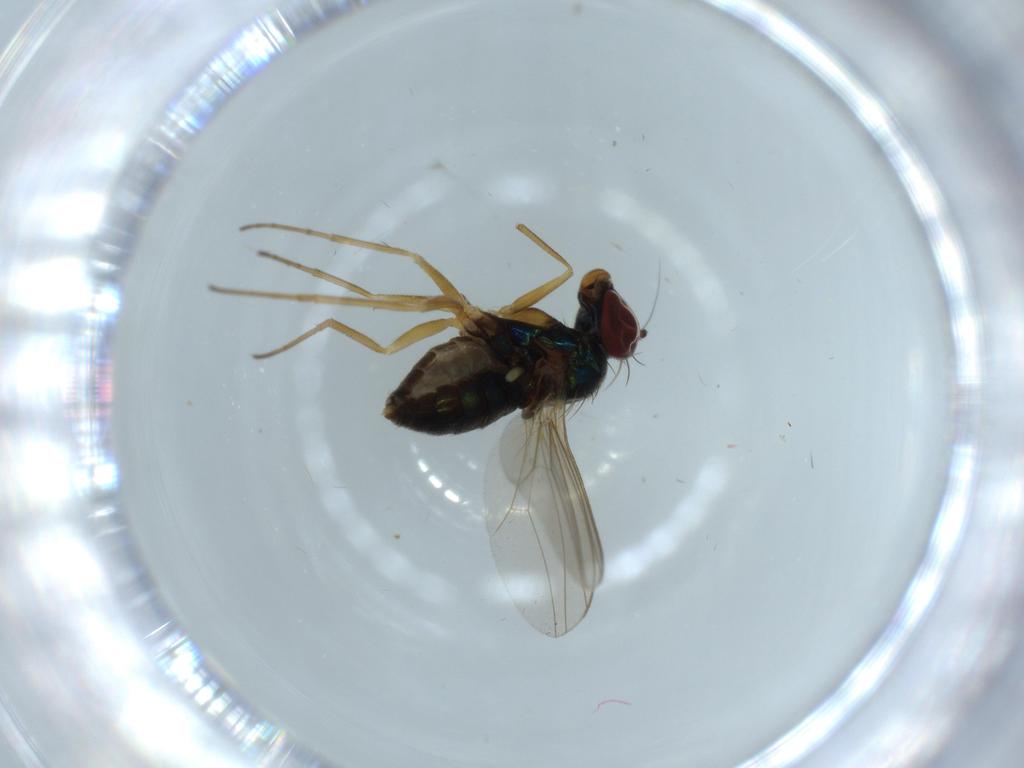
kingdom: Animalia
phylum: Arthropoda
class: Insecta
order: Diptera
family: Dolichopodidae
